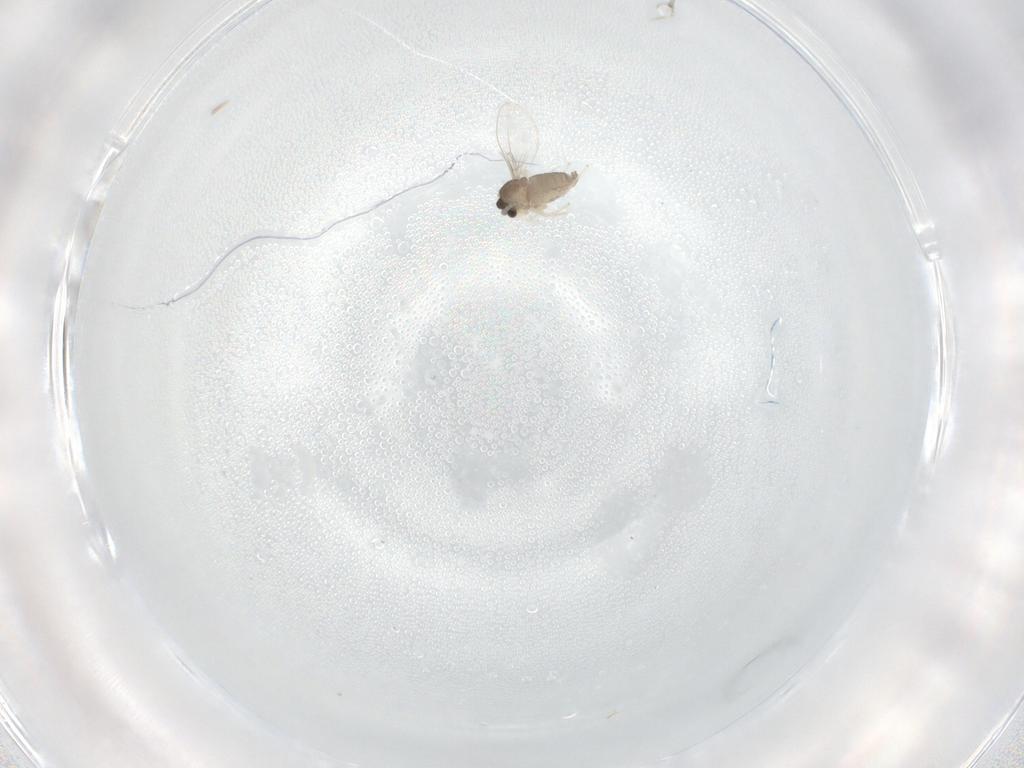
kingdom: Animalia
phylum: Arthropoda
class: Insecta
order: Diptera
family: Cecidomyiidae
